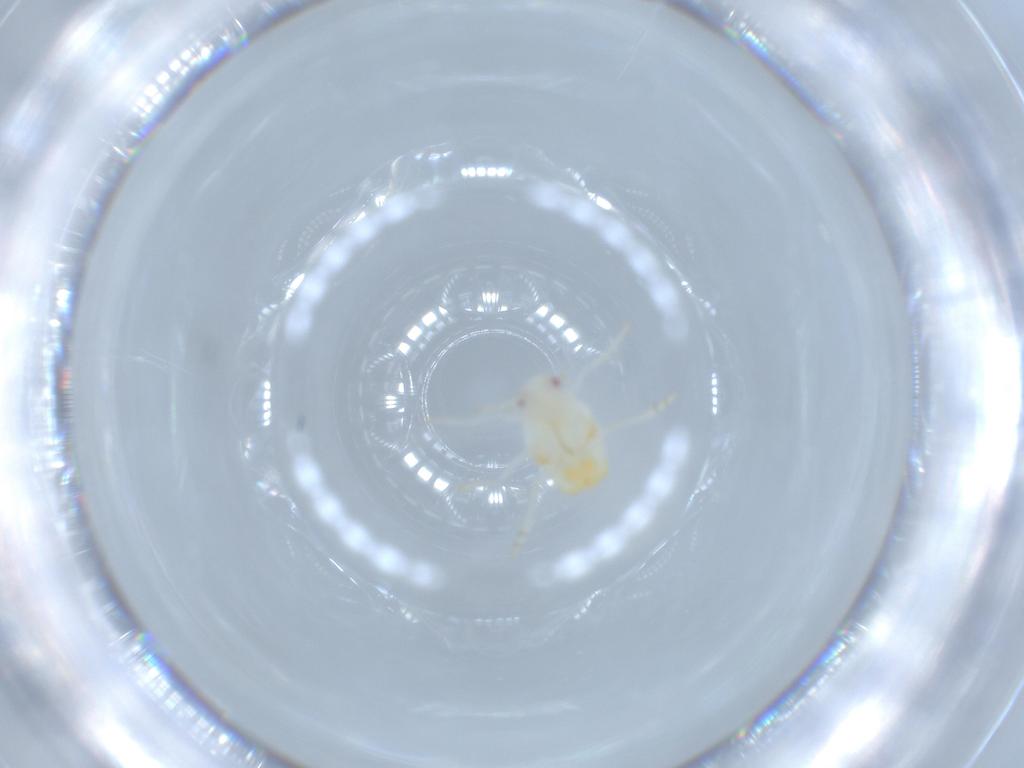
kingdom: Animalia
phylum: Arthropoda
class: Insecta
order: Hemiptera
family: Flatidae
